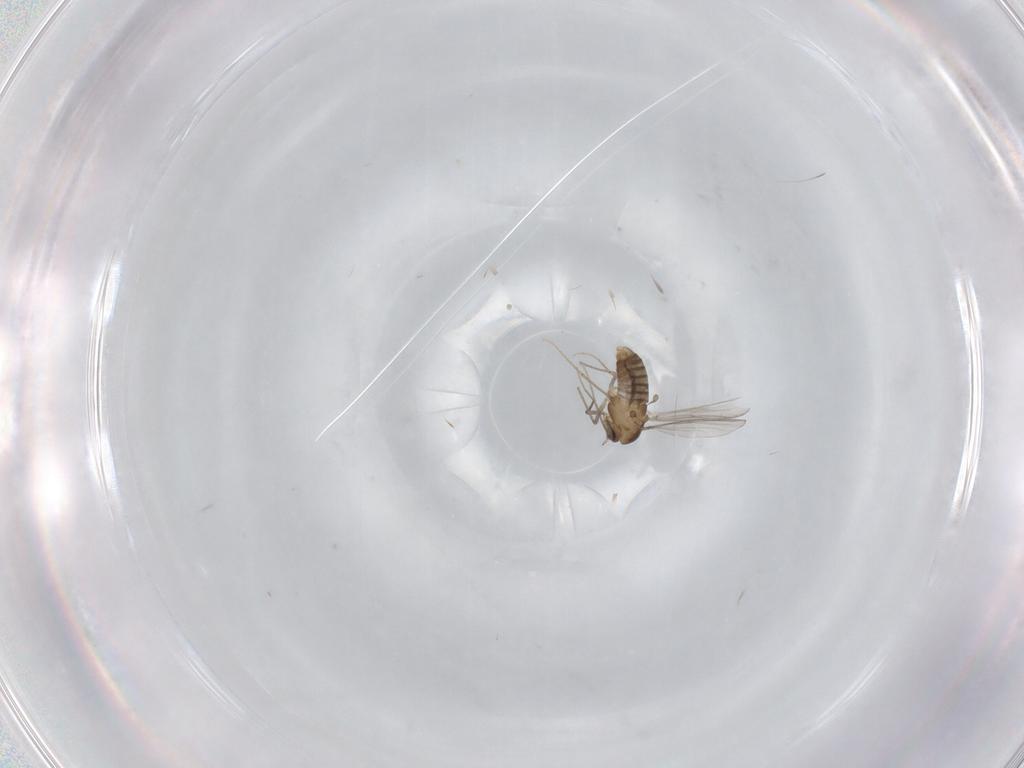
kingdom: Animalia
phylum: Arthropoda
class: Insecta
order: Diptera
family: Chironomidae
